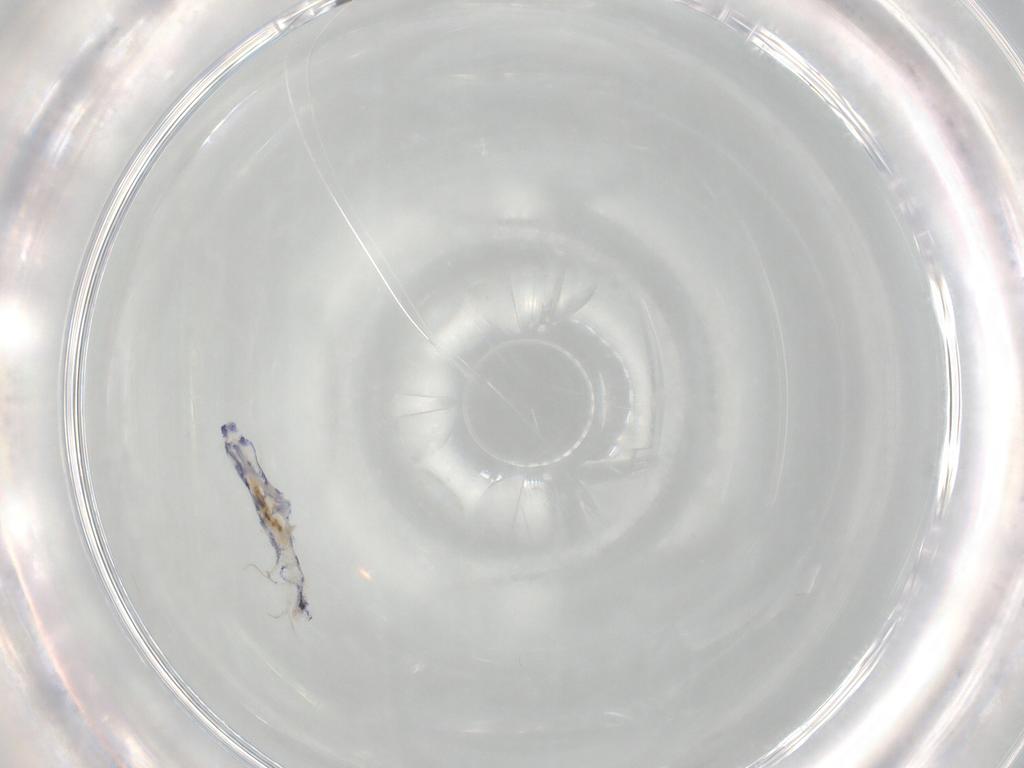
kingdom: Animalia
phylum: Arthropoda
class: Collembola
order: Entomobryomorpha
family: Entomobryidae
